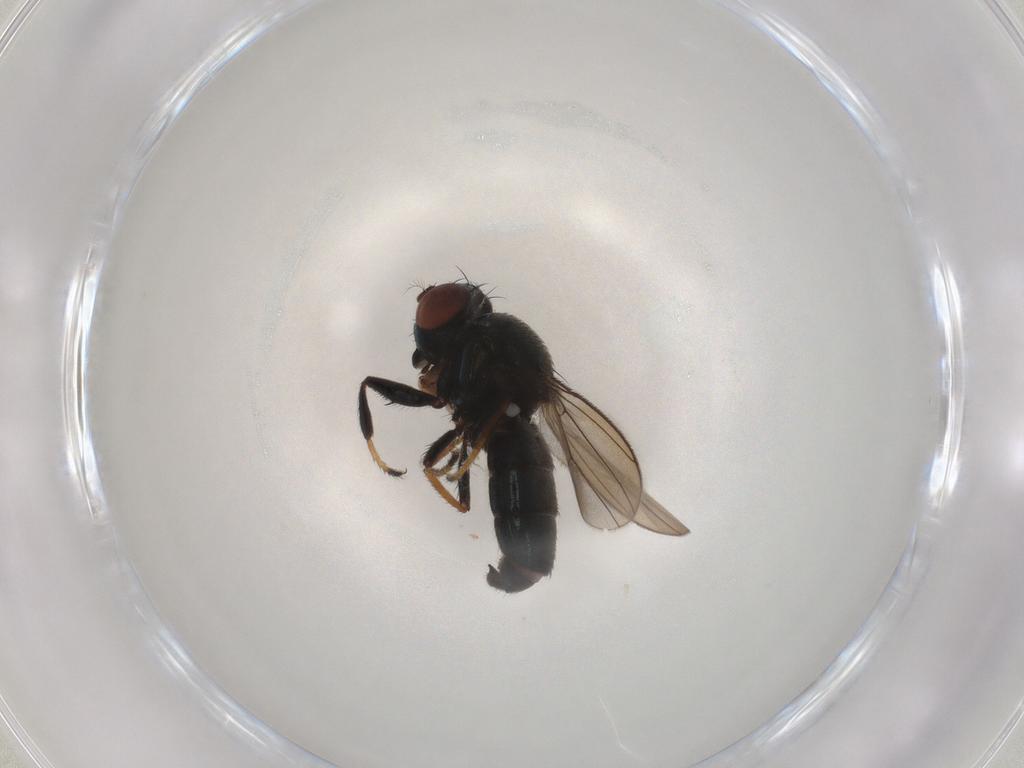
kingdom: Animalia
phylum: Arthropoda
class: Insecta
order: Diptera
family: Ephydridae
